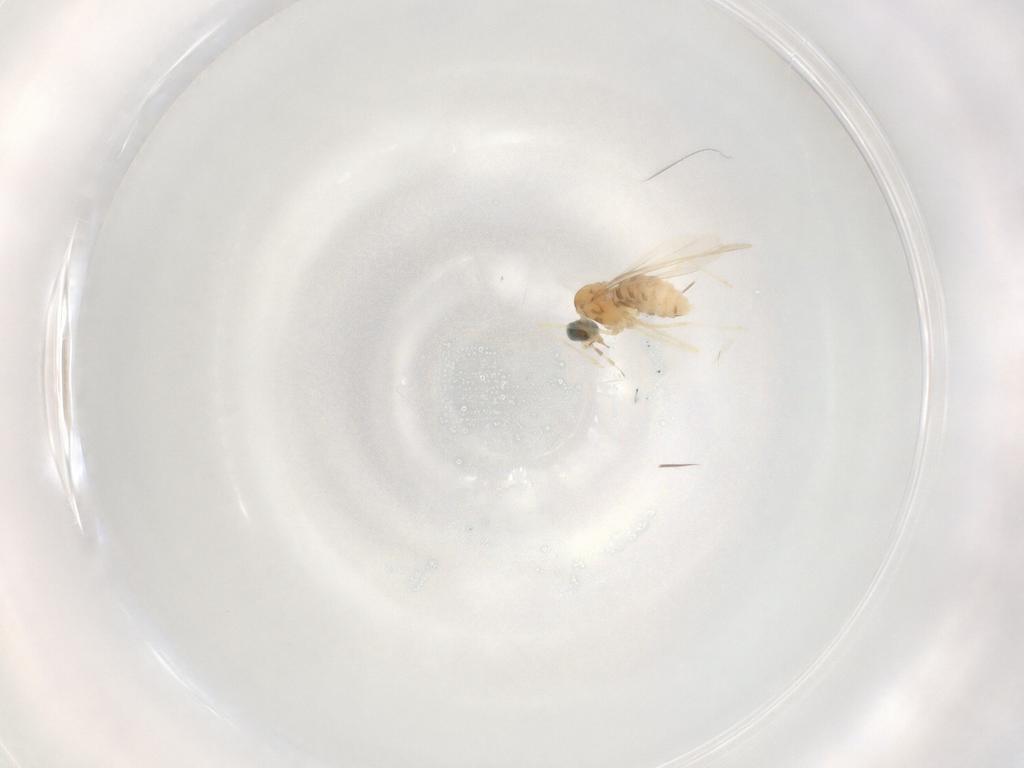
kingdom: Animalia
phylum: Arthropoda
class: Insecta
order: Diptera
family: Cecidomyiidae
